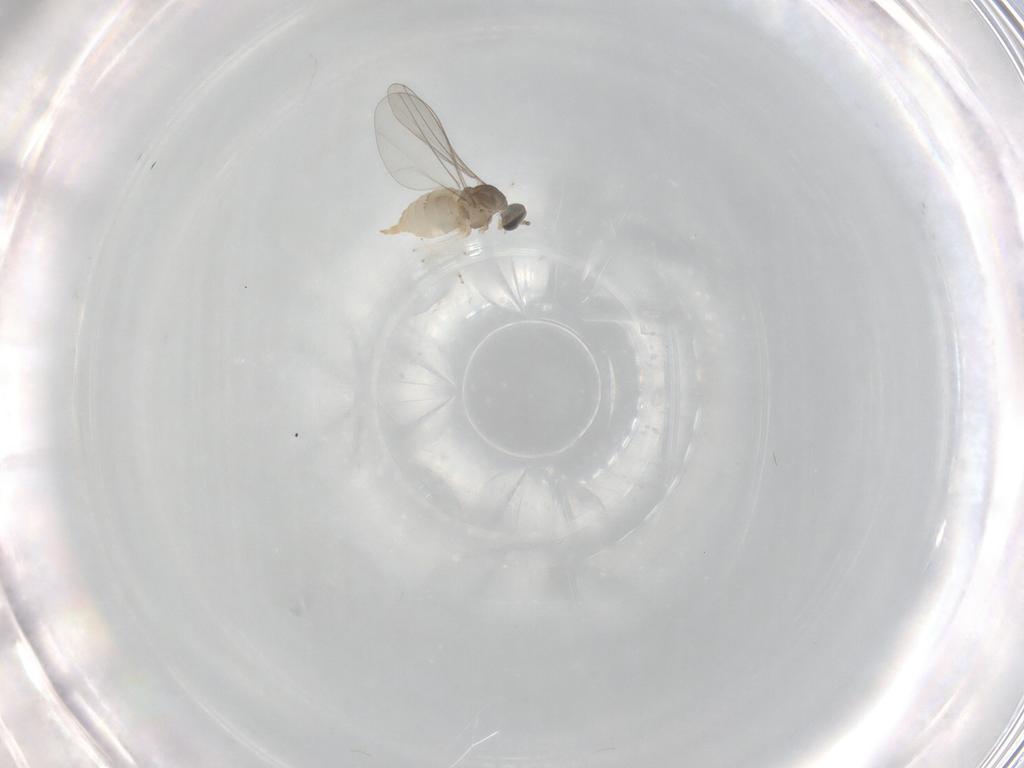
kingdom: Animalia
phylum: Arthropoda
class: Insecta
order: Diptera
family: Cecidomyiidae
